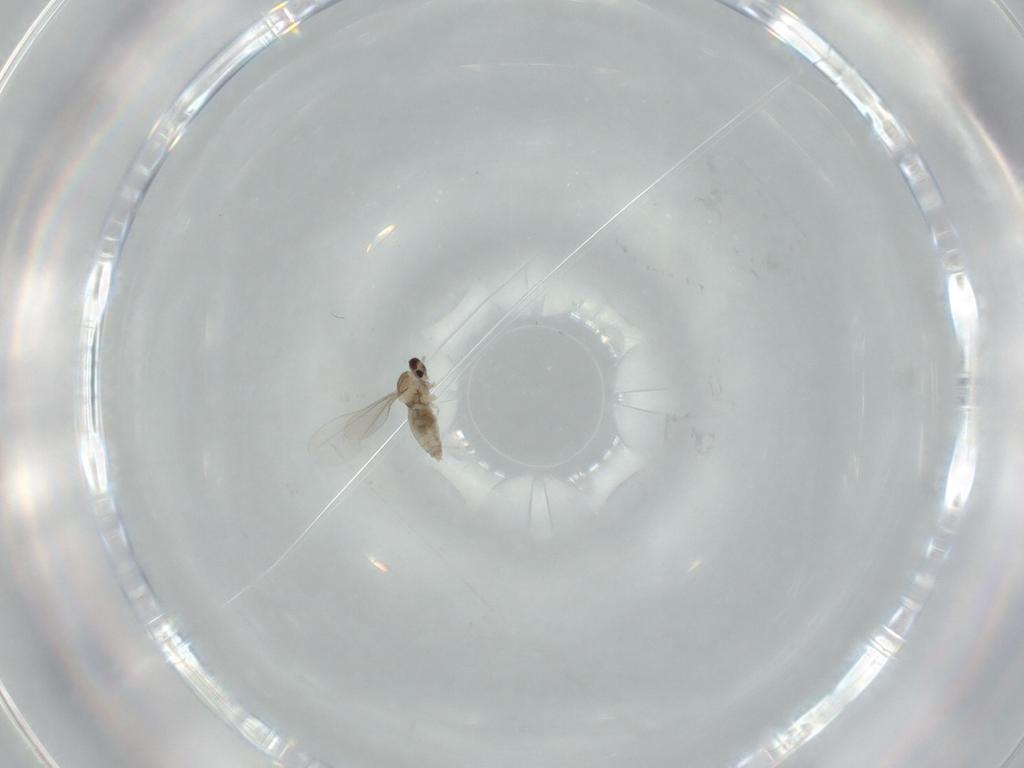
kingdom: Animalia
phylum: Arthropoda
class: Insecta
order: Diptera
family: Cecidomyiidae
